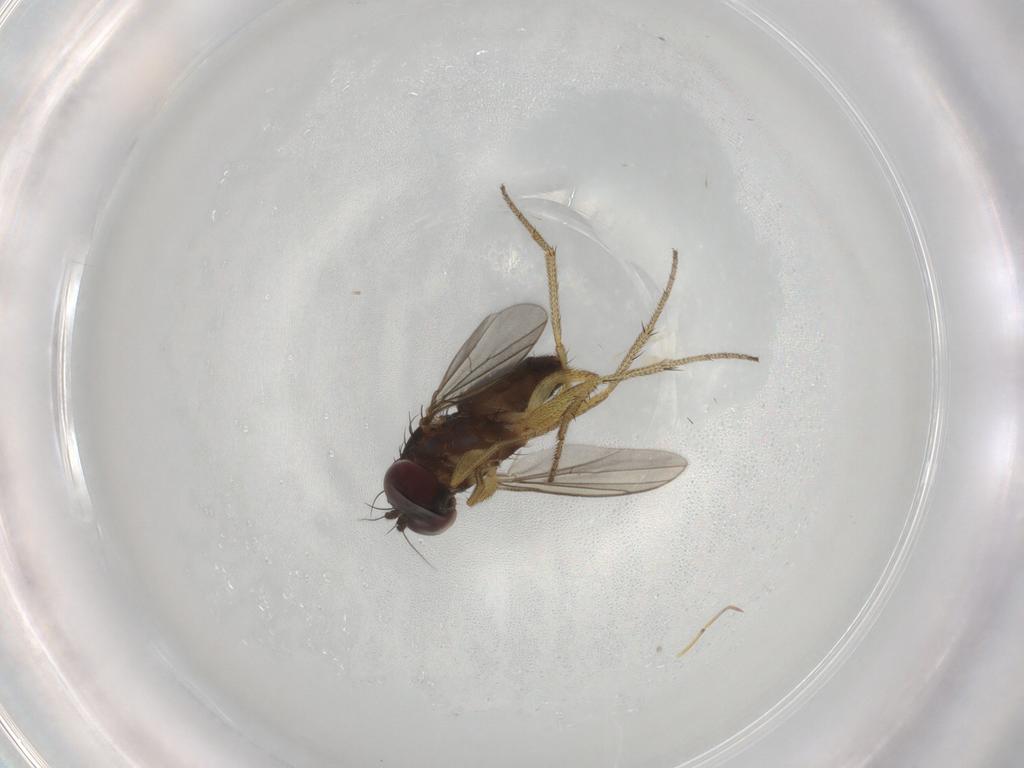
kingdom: Animalia
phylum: Arthropoda
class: Insecta
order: Diptera
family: Dolichopodidae
